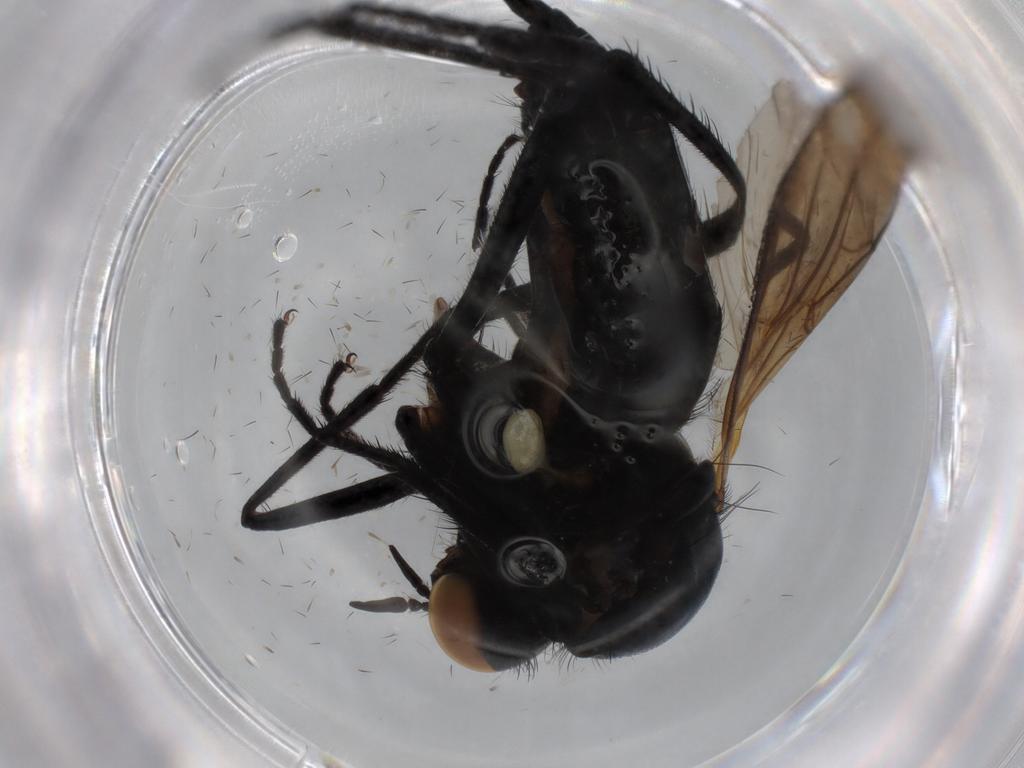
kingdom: Animalia
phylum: Arthropoda
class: Insecta
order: Diptera
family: Empididae
